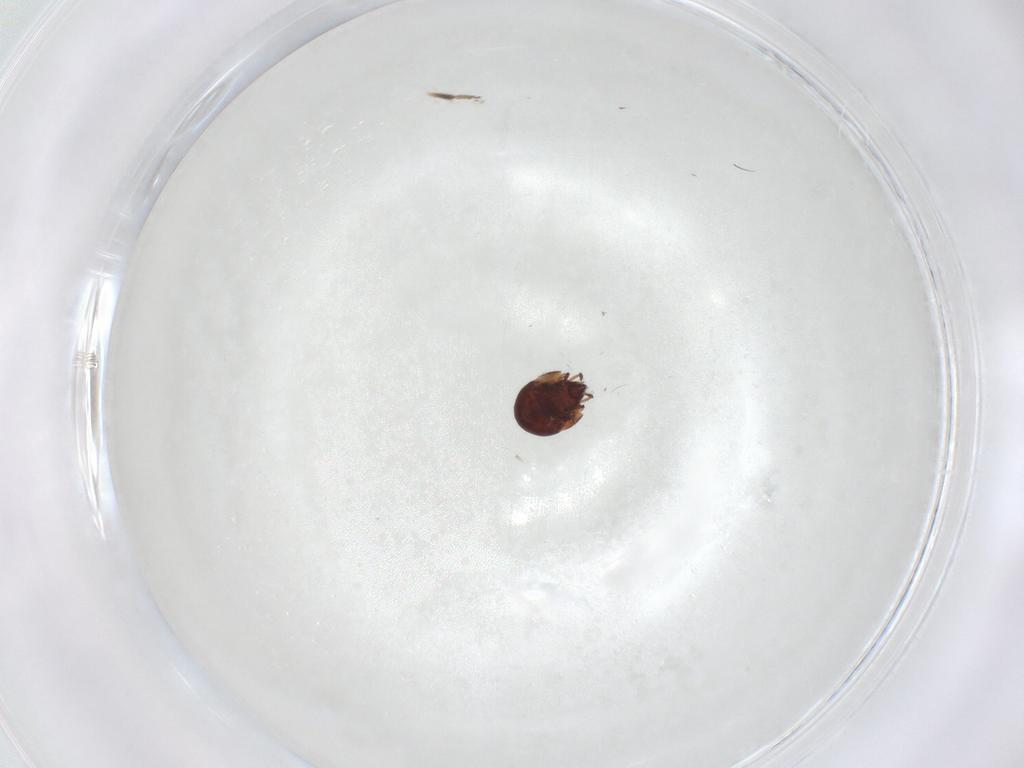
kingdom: Animalia
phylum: Arthropoda
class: Arachnida
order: Sarcoptiformes
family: Humerobatidae
